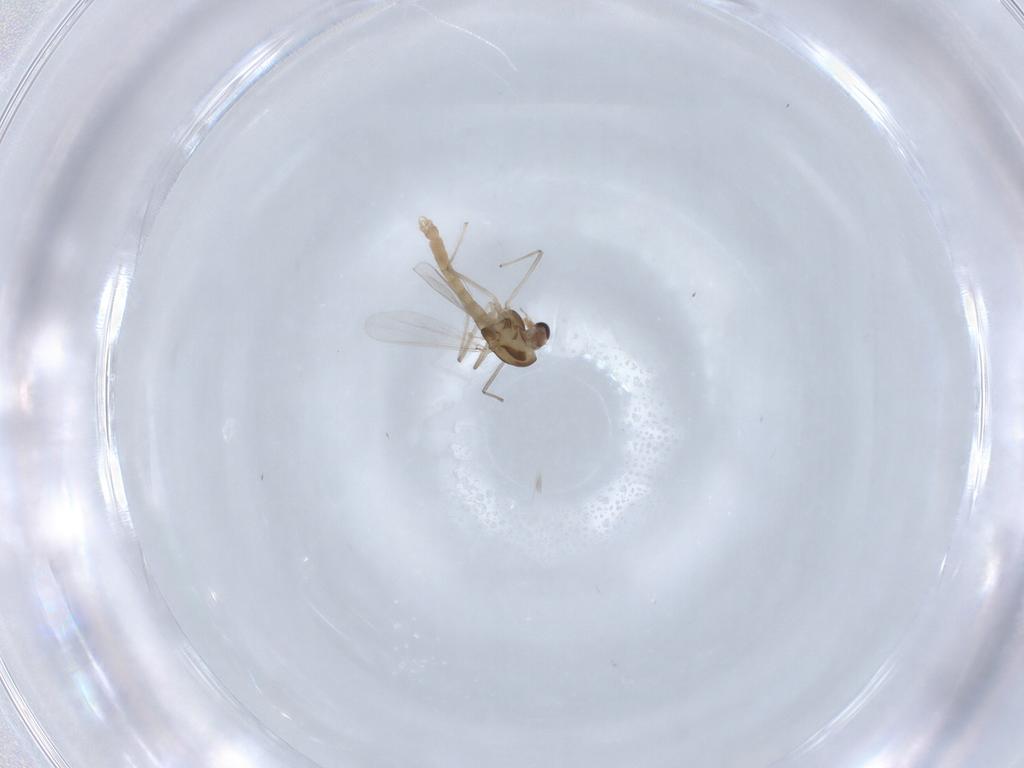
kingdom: Animalia
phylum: Arthropoda
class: Insecta
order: Diptera
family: Chironomidae
